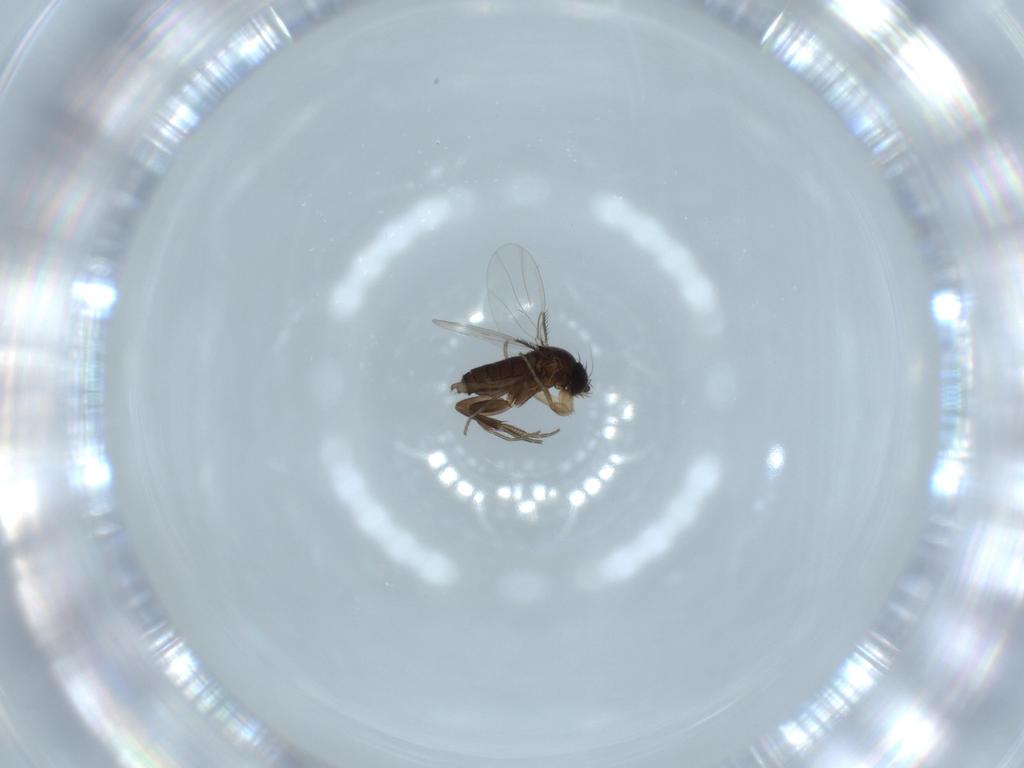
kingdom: Animalia
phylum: Arthropoda
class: Insecta
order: Diptera
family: Phoridae
